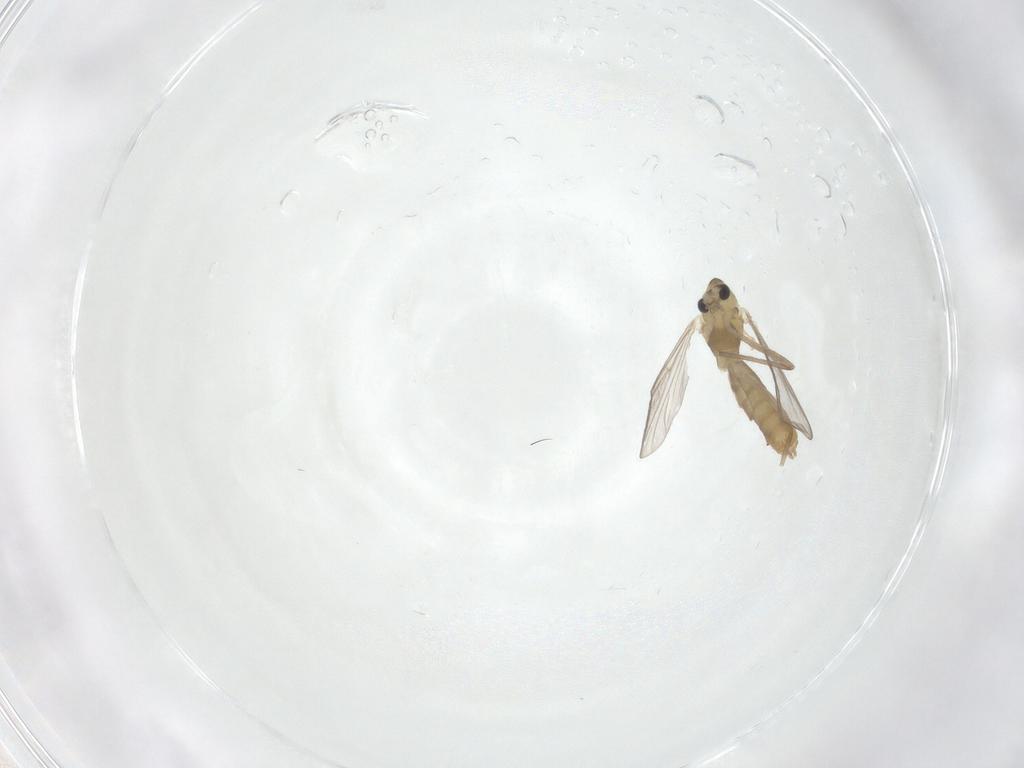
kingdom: Animalia
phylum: Arthropoda
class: Insecta
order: Diptera
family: Chironomidae
